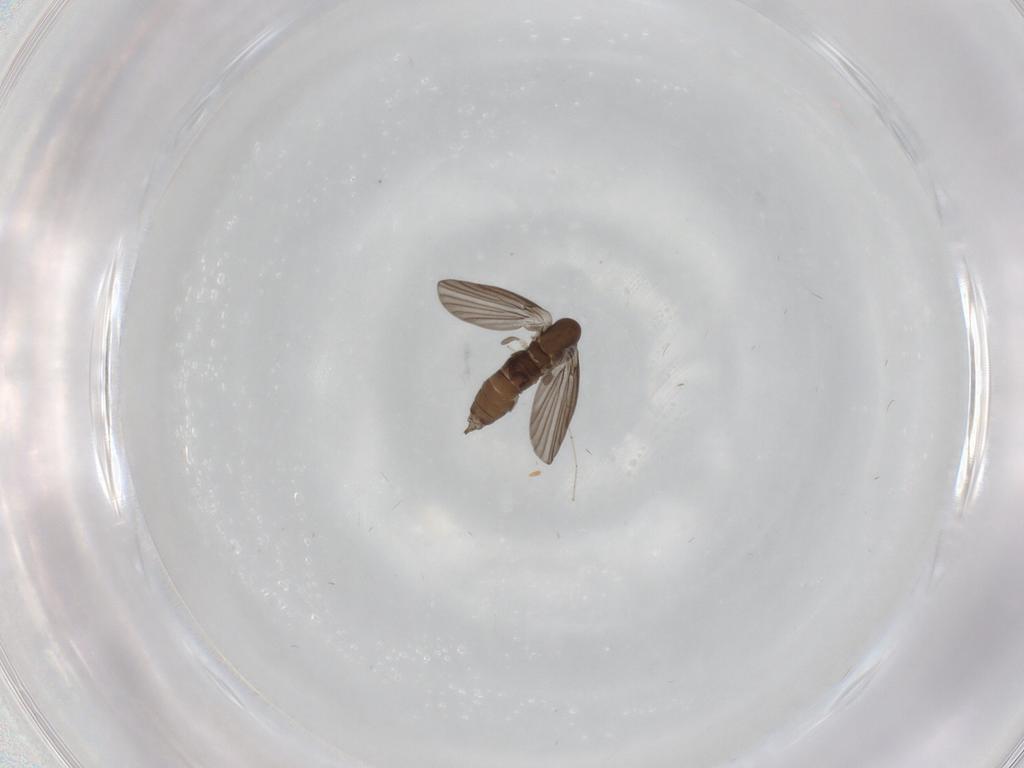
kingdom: Animalia
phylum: Arthropoda
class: Insecta
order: Diptera
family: Cecidomyiidae
